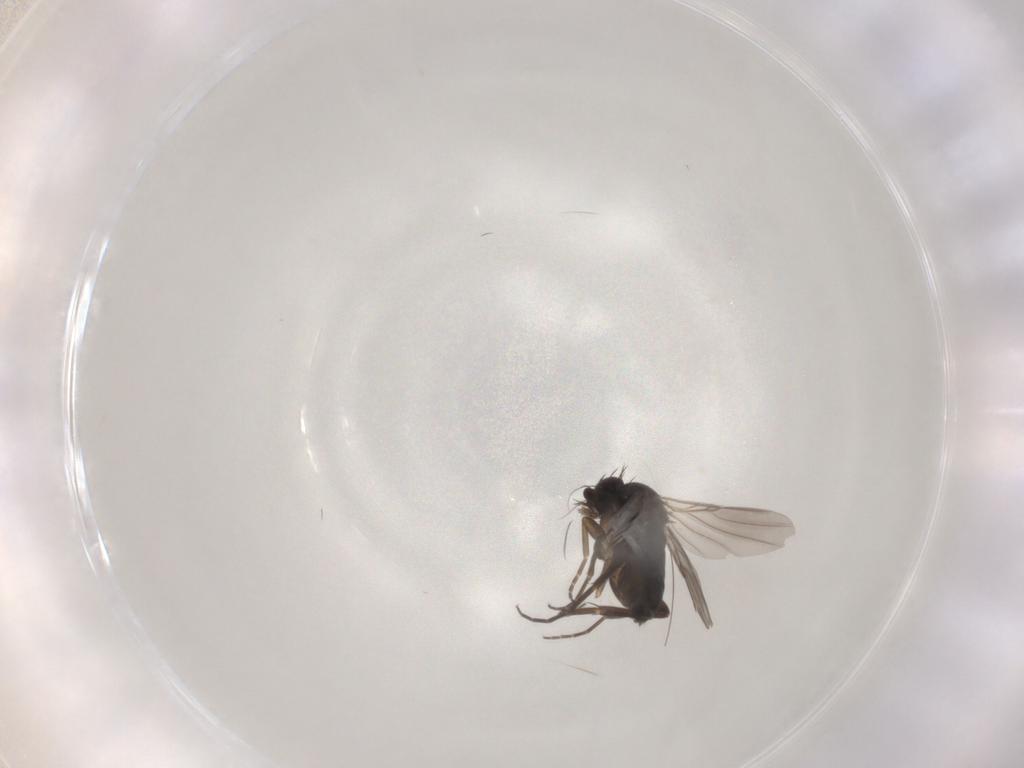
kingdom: Animalia
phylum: Arthropoda
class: Insecta
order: Diptera
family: Phoridae
